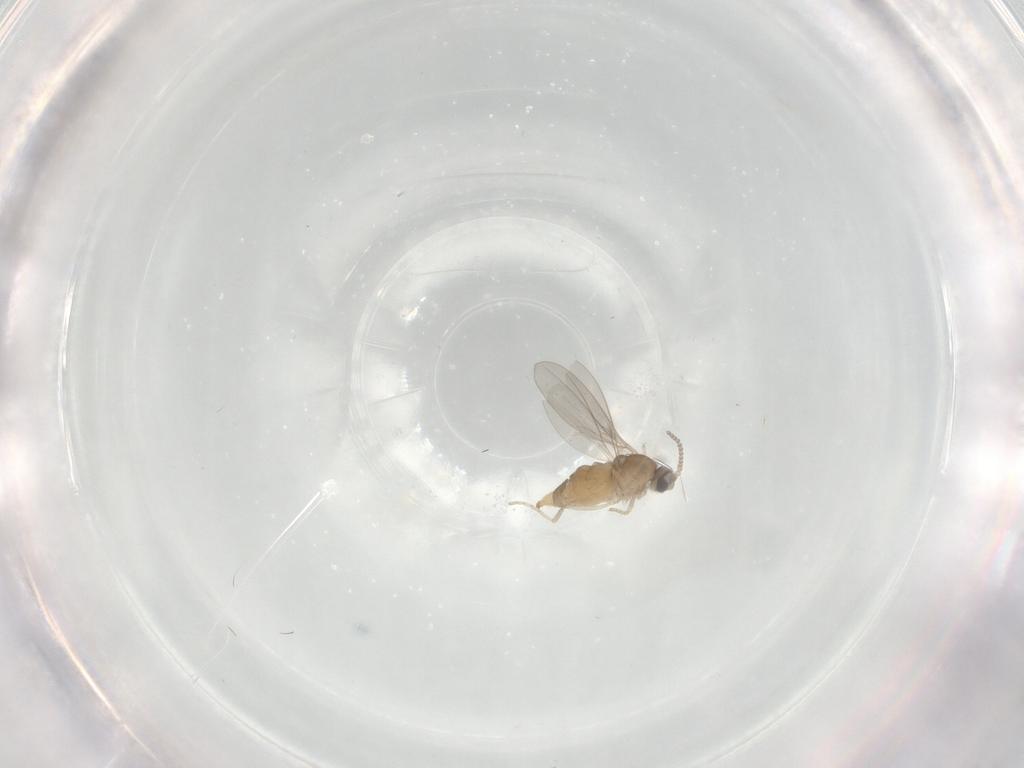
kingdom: Animalia
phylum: Arthropoda
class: Insecta
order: Diptera
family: Cecidomyiidae
